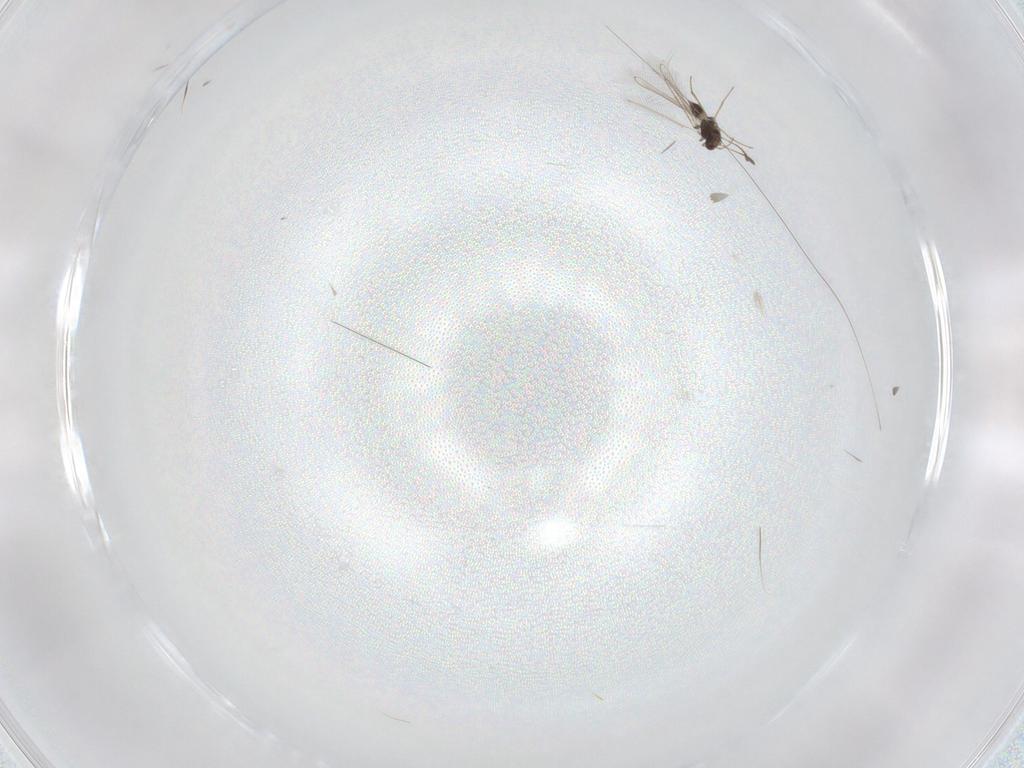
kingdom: Animalia
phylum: Arthropoda
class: Insecta
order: Hymenoptera
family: Mymaridae
